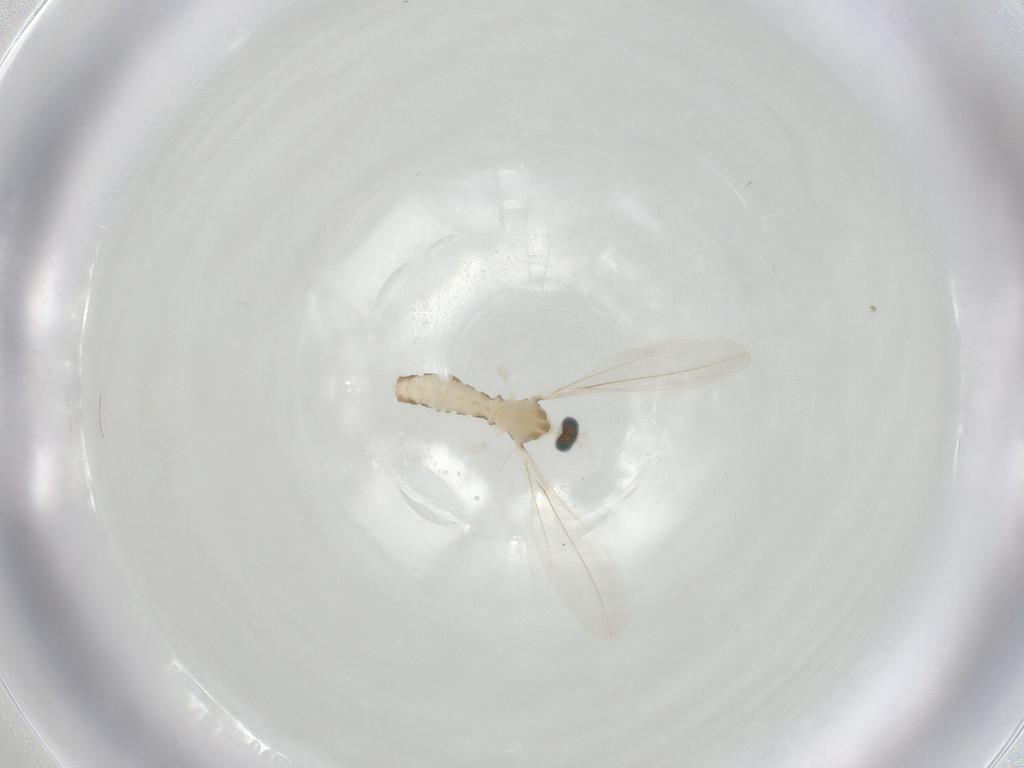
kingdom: Animalia
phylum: Arthropoda
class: Insecta
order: Diptera
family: Cecidomyiidae
